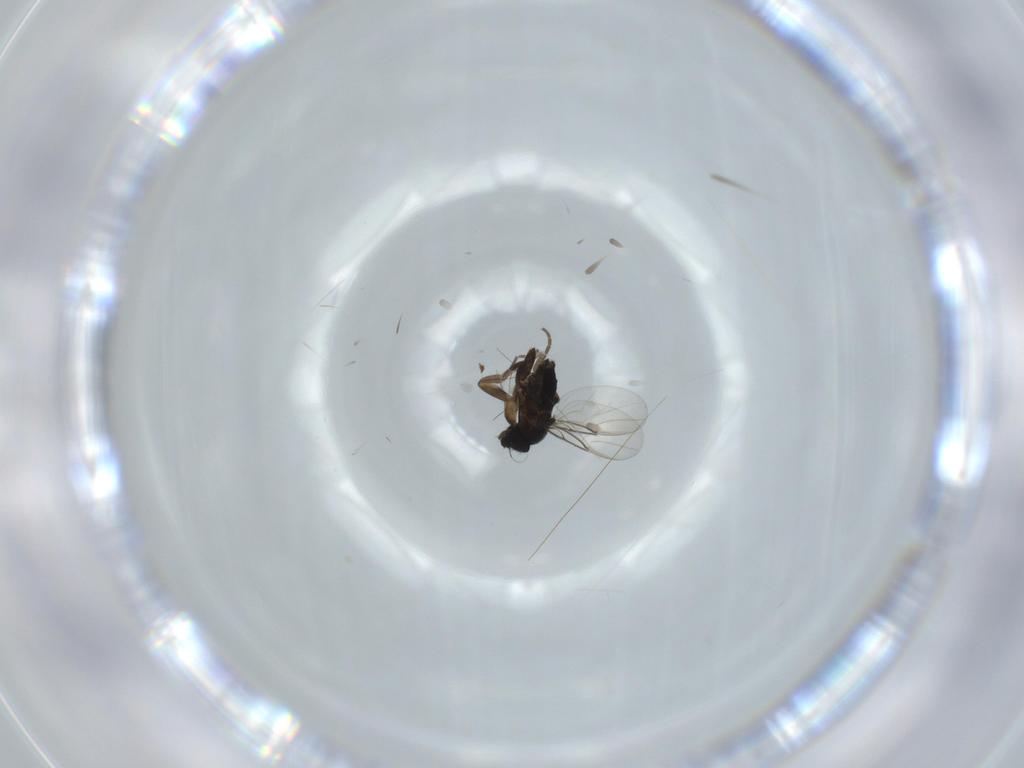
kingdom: Animalia
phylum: Arthropoda
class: Insecta
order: Diptera
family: Phoridae
